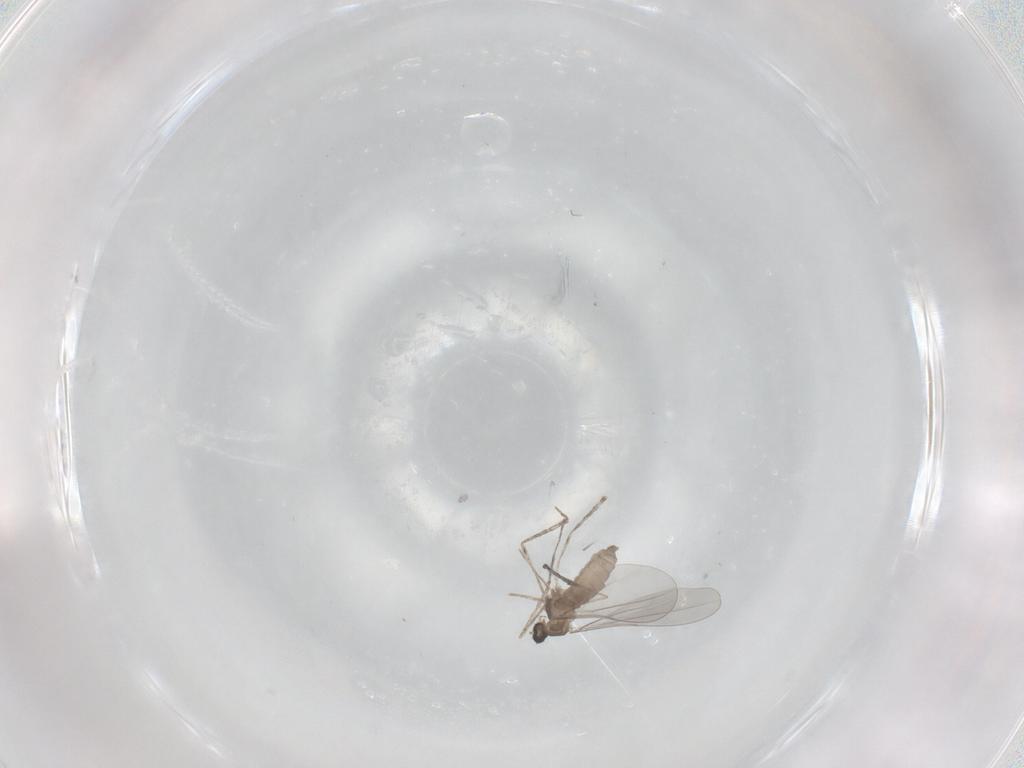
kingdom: Animalia
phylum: Arthropoda
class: Insecta
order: Diptera
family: Cecidomyiidae
